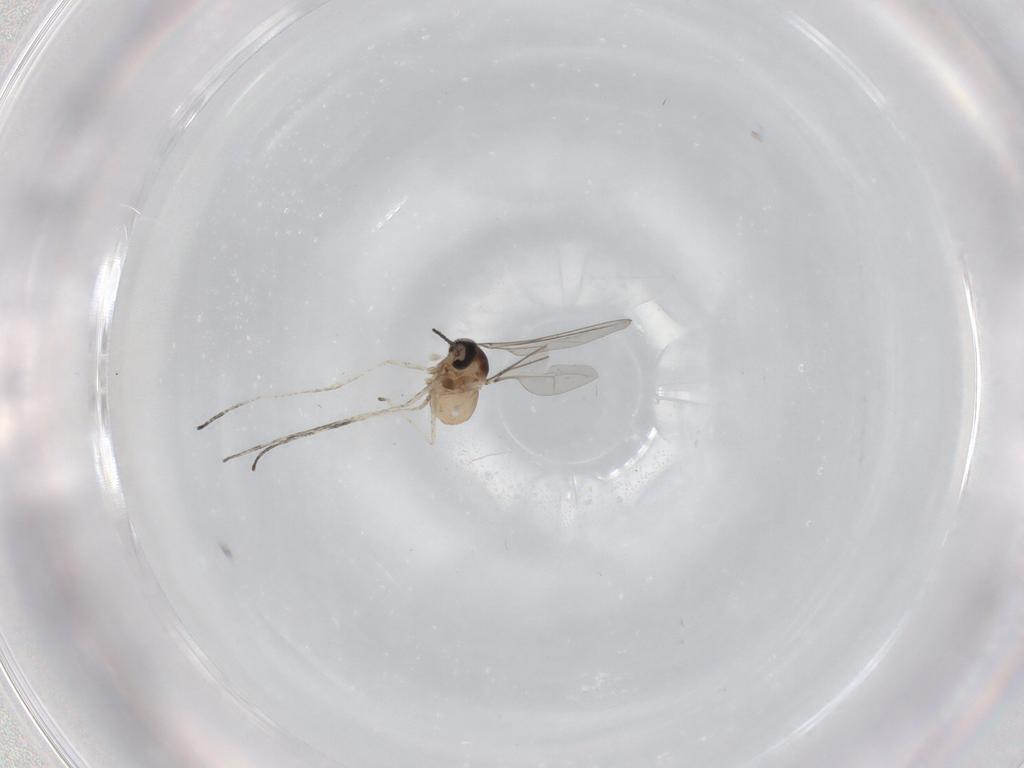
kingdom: Animalia
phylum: Arthropoda
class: Insecta
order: Diptera
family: Cecidomyiidae
